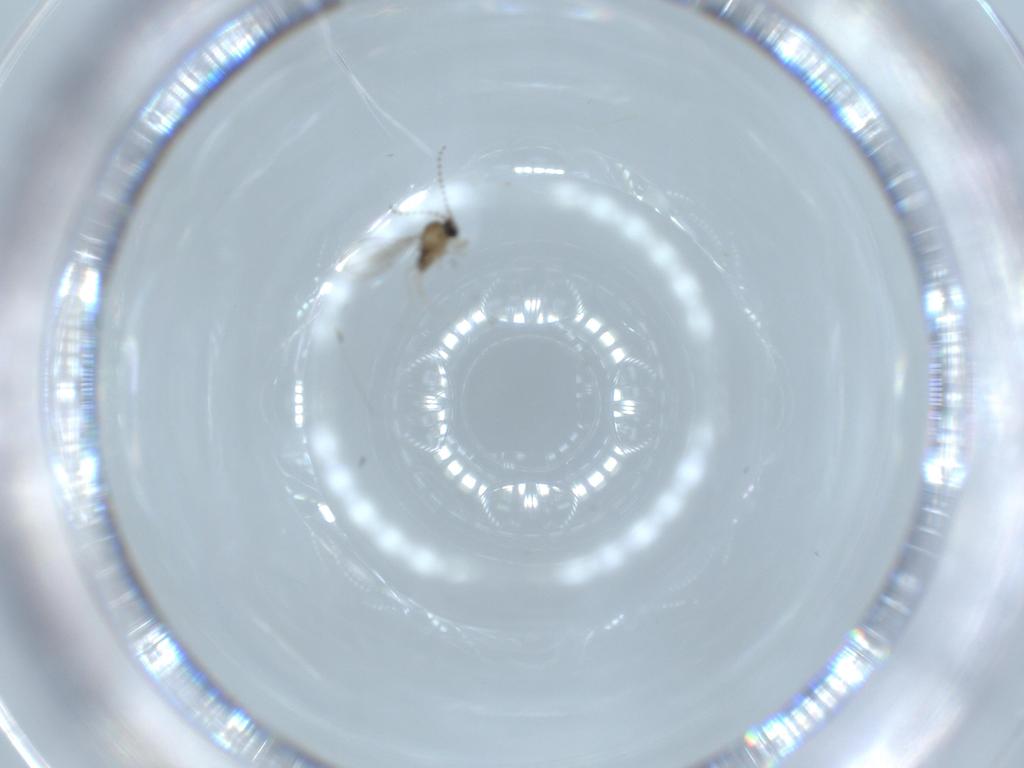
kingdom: Animalia
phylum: Arthropoda
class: Insecta
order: Diptera
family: Cecidomyiidae
